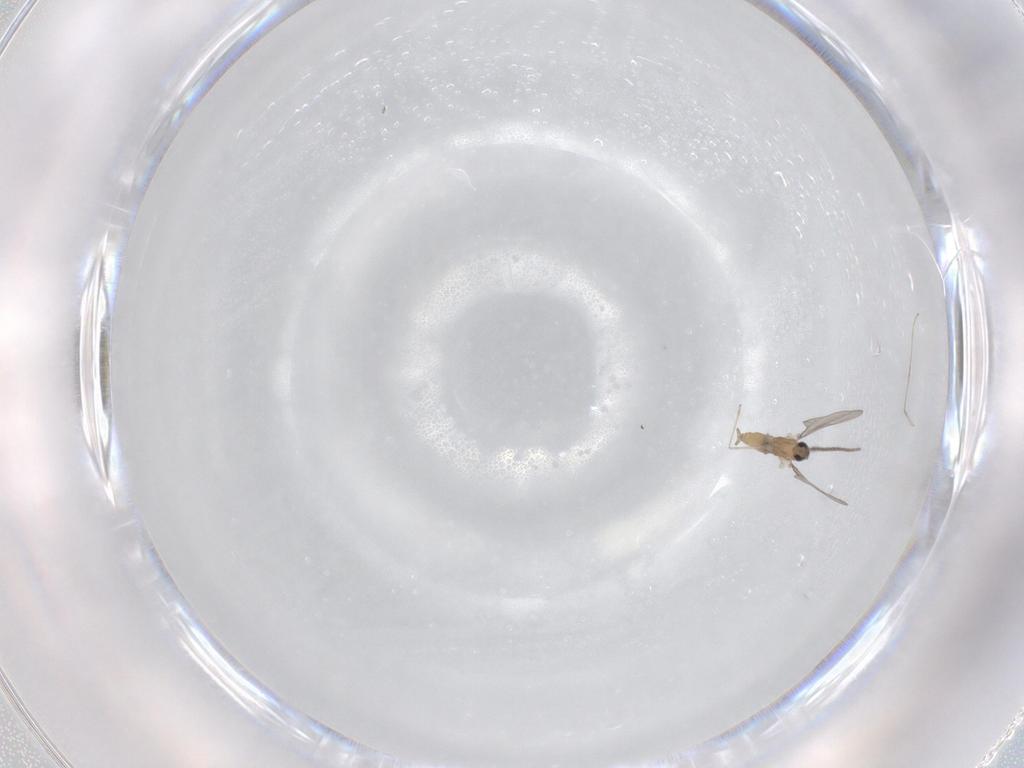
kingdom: Animalia
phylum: Arthropoda
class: Insecta
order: Diptera
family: Cecidomyiidae
